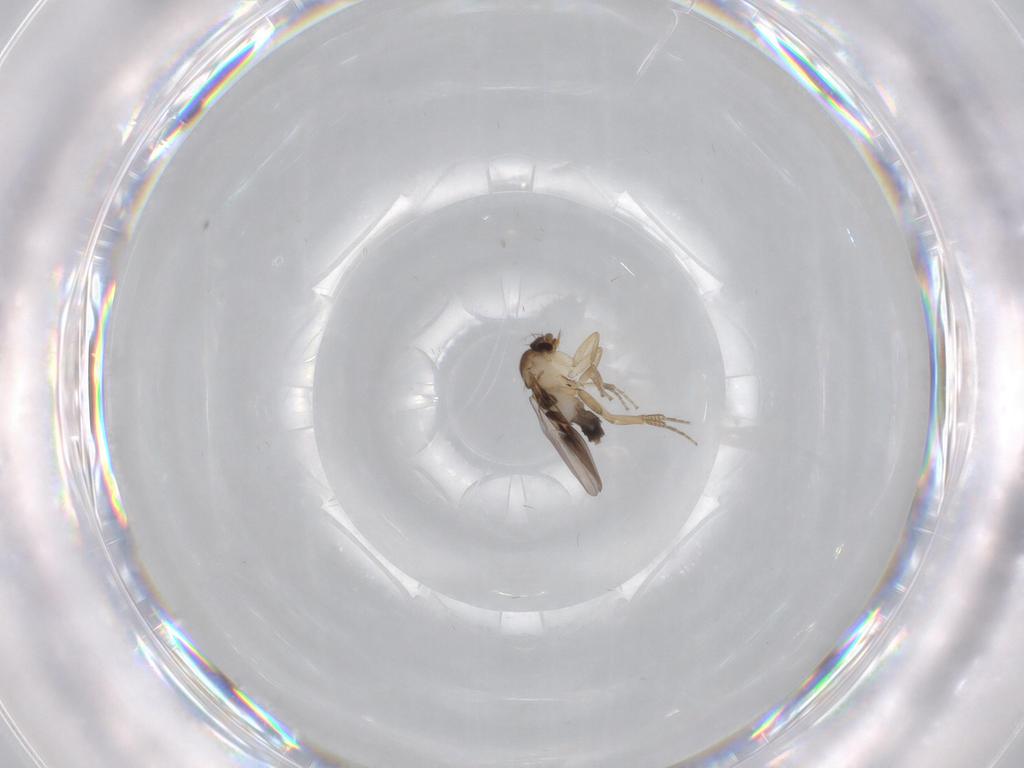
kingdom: Animalia
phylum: Arthropoda
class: Insecta
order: Diptera
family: Phoridae
